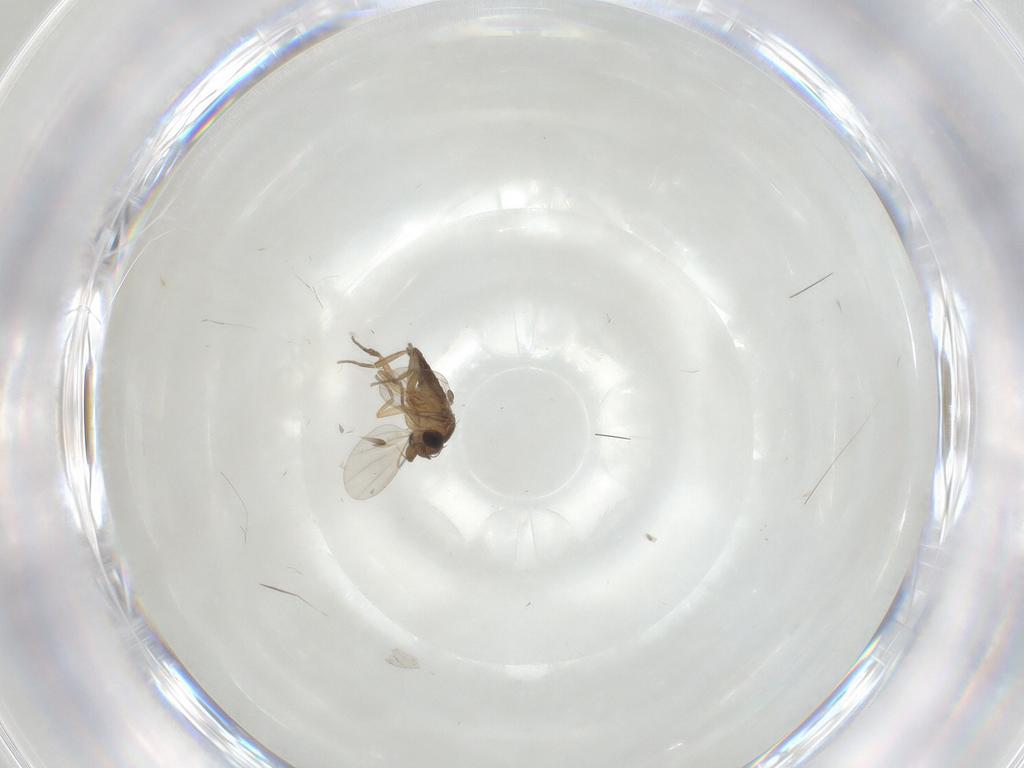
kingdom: Animalia
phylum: Arthropoda
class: Insecta
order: Diptera
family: Phoridae
